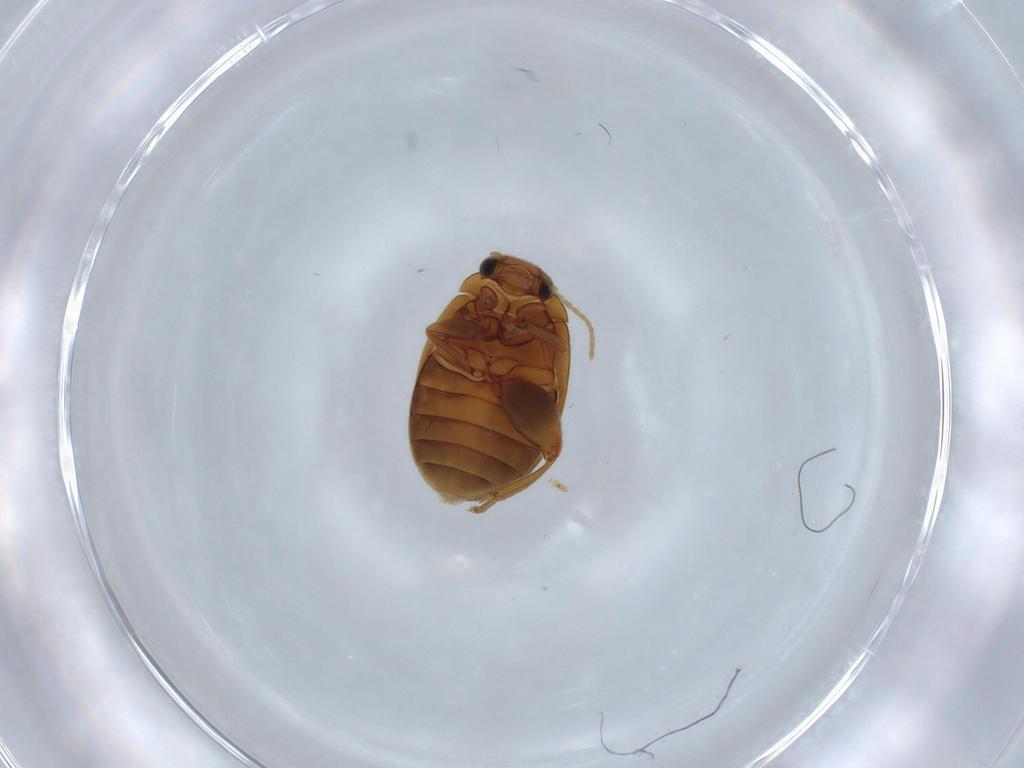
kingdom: Animalia
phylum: Arthropoda
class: Insecta
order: Coleoptera
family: Scirtidae
